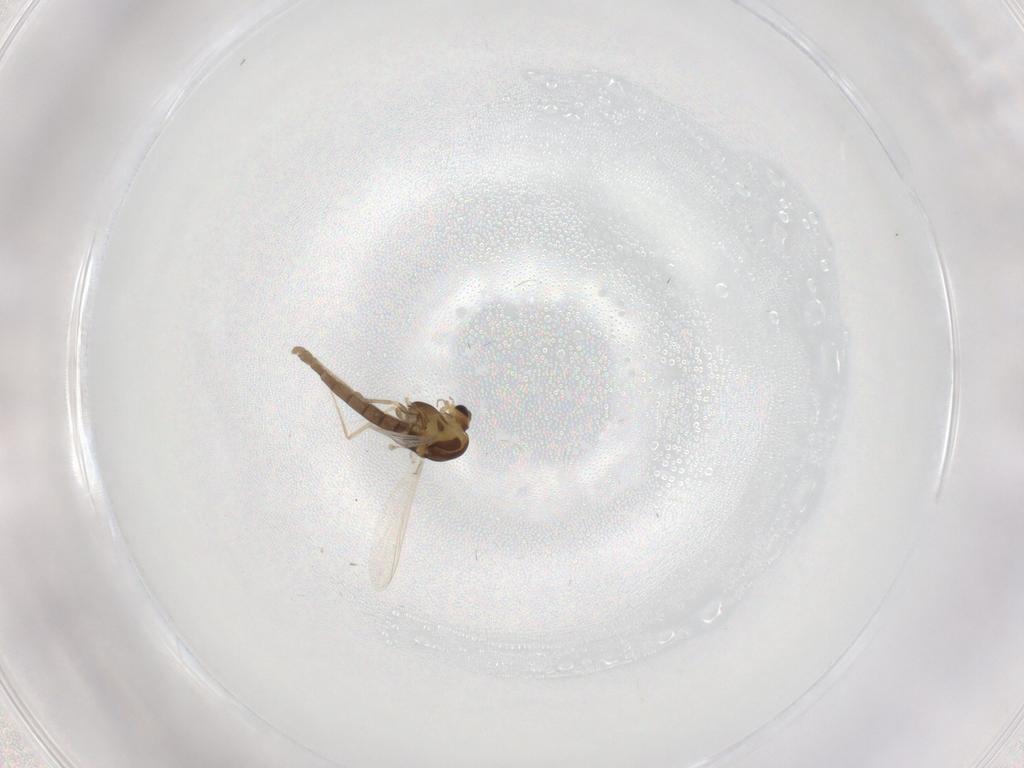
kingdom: Animalia
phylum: Arthropoda
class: Insecta
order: Diptera
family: Chironomidae
